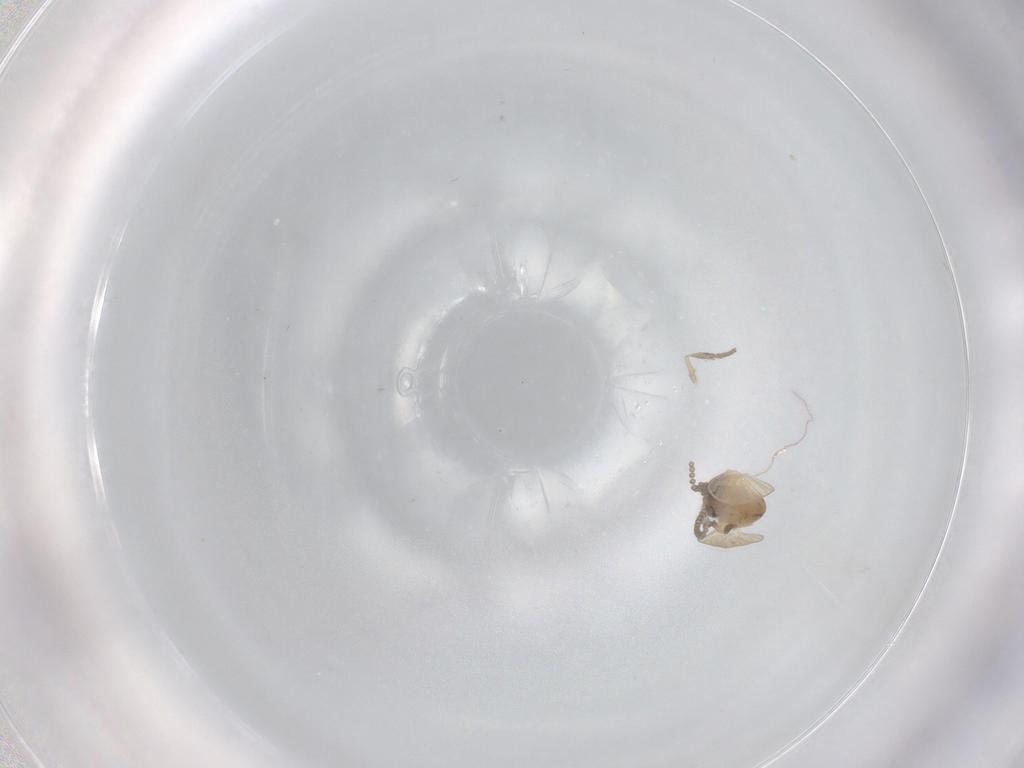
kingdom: Animalia
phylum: Arthropoda
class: Insecta
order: Diptera
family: Psychodidae
